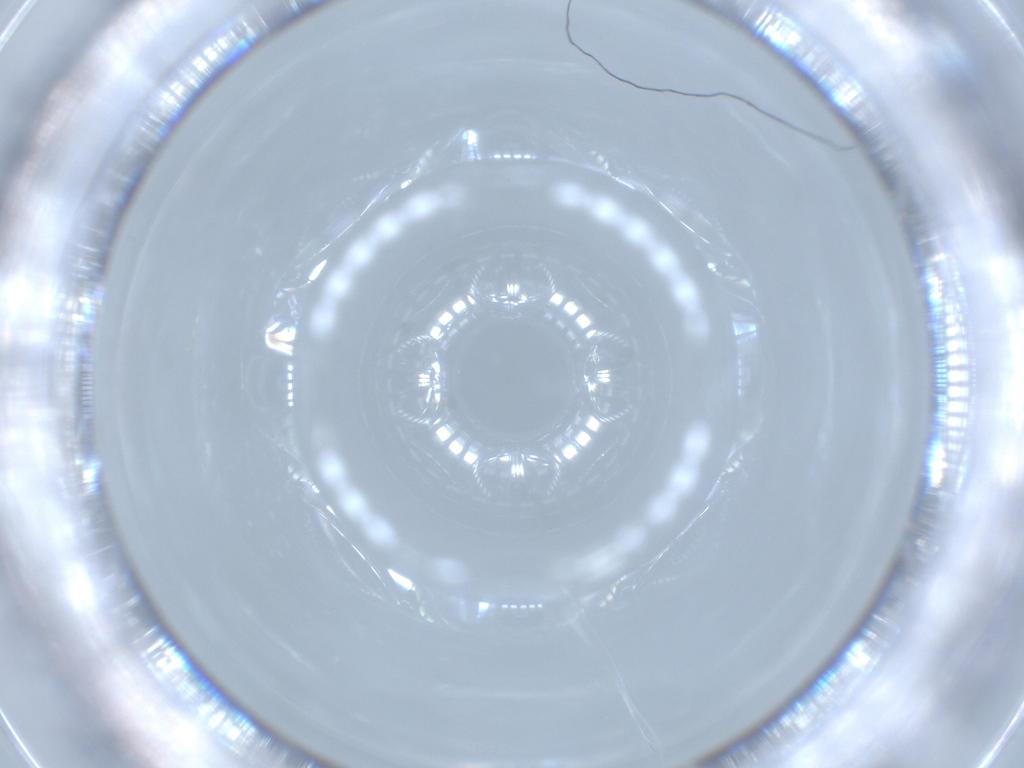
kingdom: Animalia
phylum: Arthropoda
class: Insecta
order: Diptera
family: Cecidomyiidae
